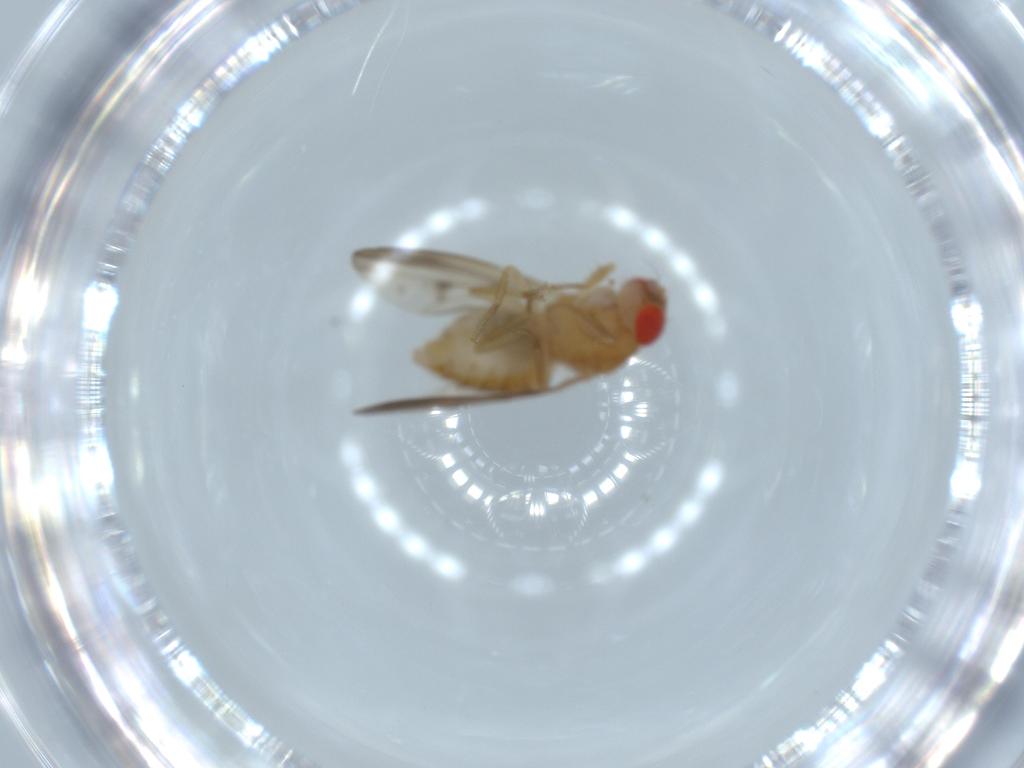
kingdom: Animalia
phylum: Arthropoda
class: Insecta
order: Diptera
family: Drosophilidae
